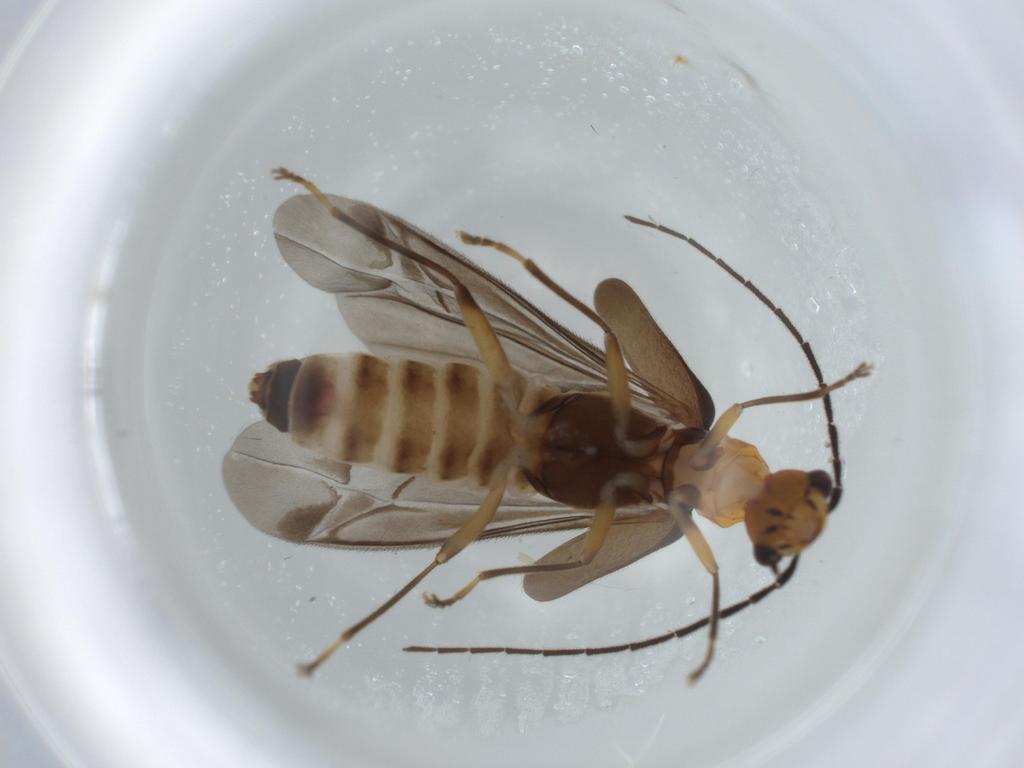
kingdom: Animalia
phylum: Arthropoda
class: Insecta
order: Coleoptera
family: Cantharidae
